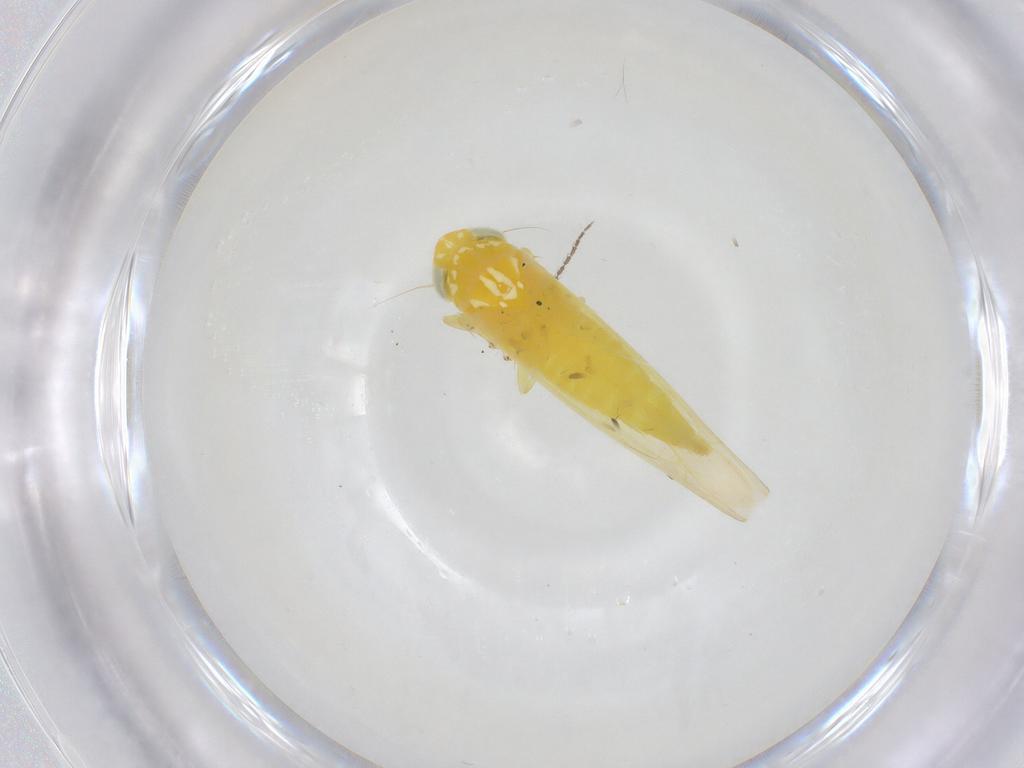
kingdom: Animalia
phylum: Arthropoda
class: Insecta
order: Hemiptera
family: Cicadellidae
